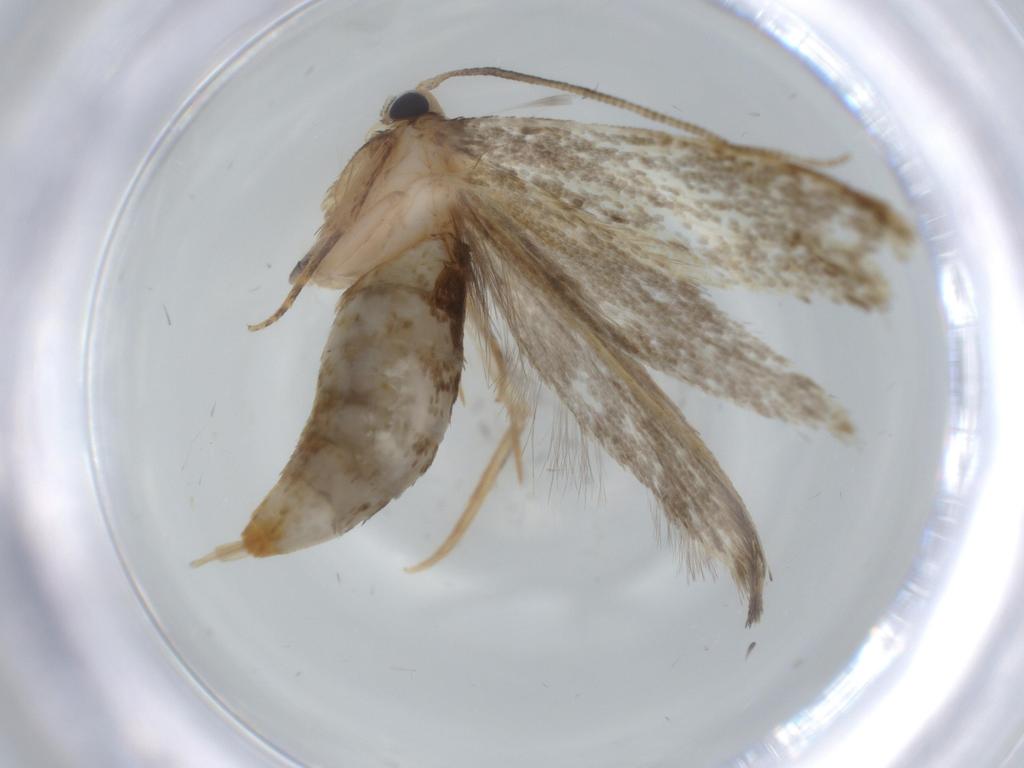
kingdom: Animalia
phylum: Arthropoda
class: Insecta
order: Lepidoptera
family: Tineidae
